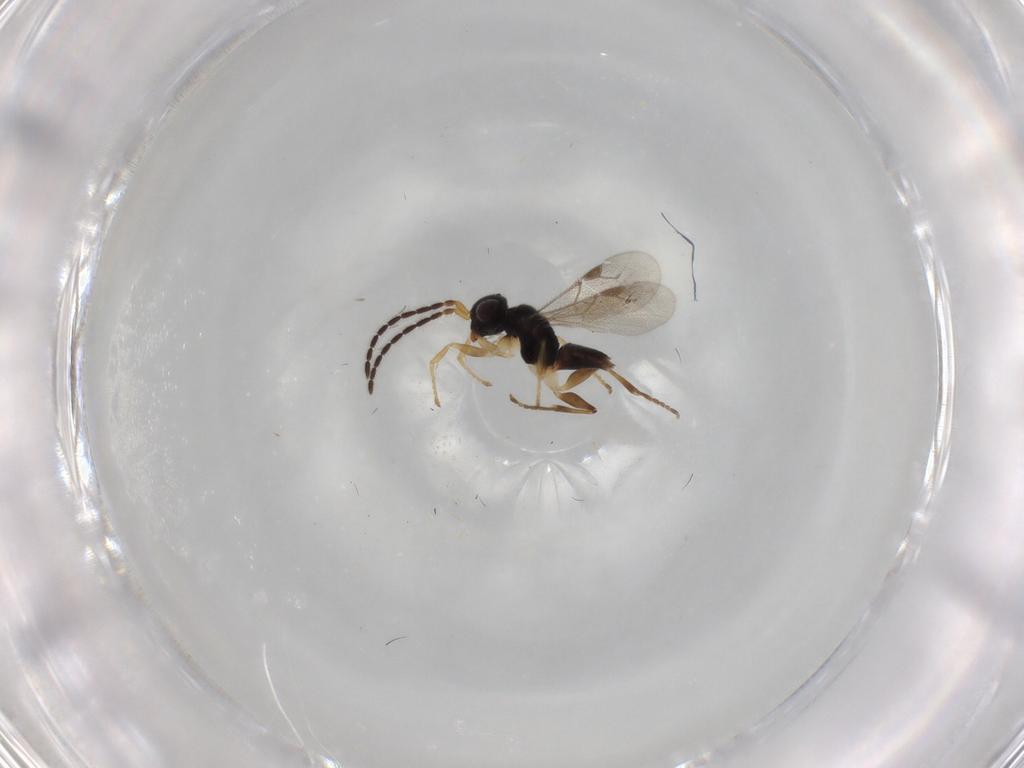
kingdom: Animalia
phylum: Arthropoda
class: Insecta
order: Hymenoptera
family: Dryinidae
